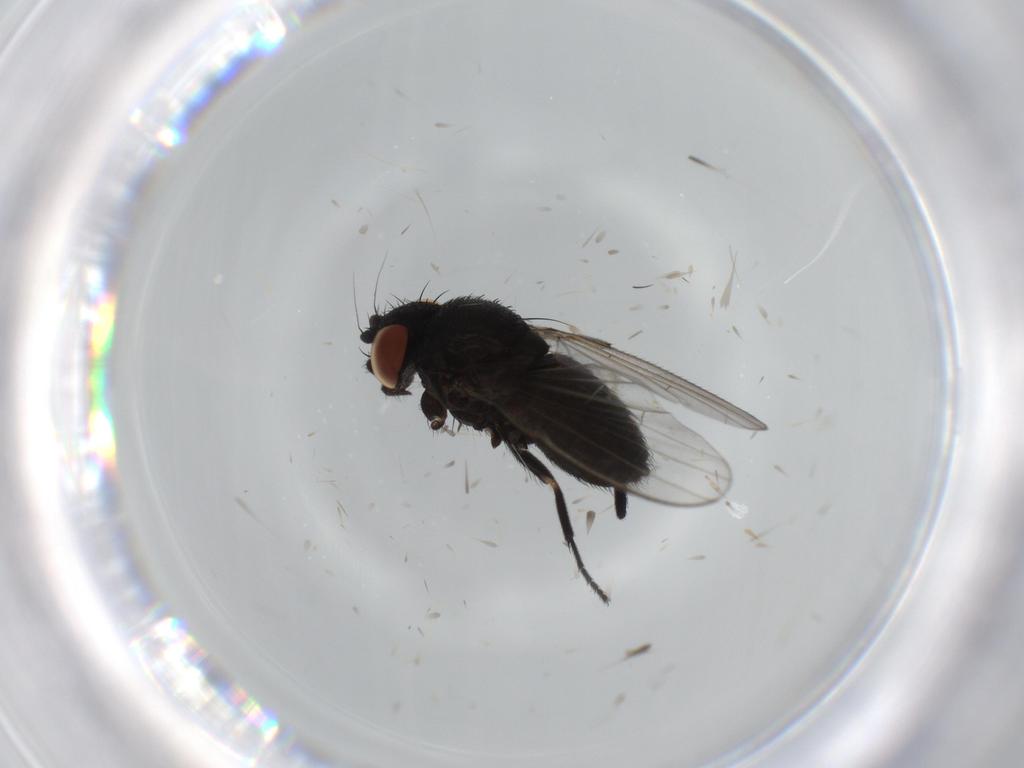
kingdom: Animalia
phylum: Arthropoda
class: Insecta
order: Diptera
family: Milichiidae
